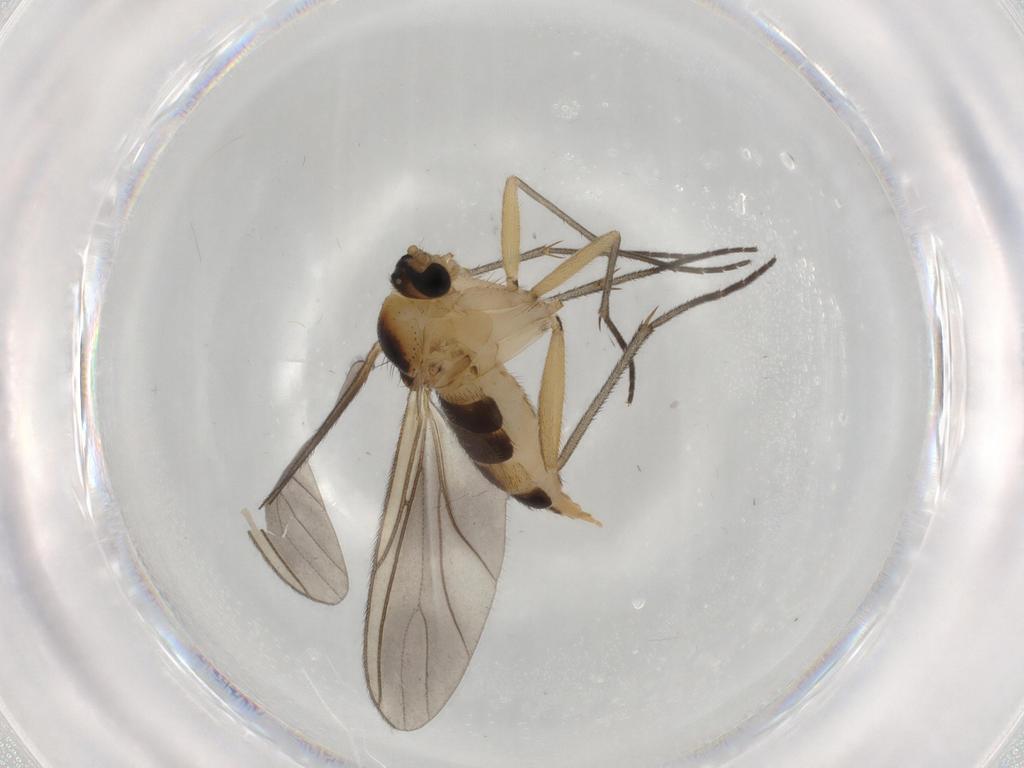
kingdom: Animalia
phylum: Arthropoda
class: Insecta
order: Diptera
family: Sciaridae
